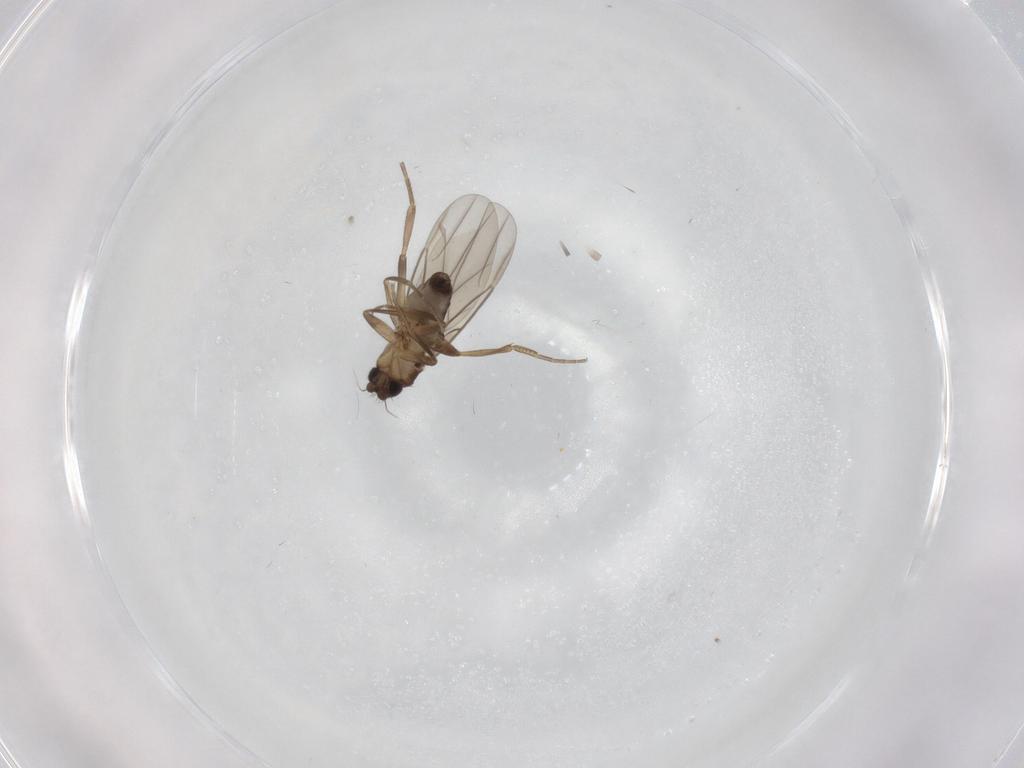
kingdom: Animalia
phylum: Arthropoda
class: Insecta
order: Diptera
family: Phoridae
